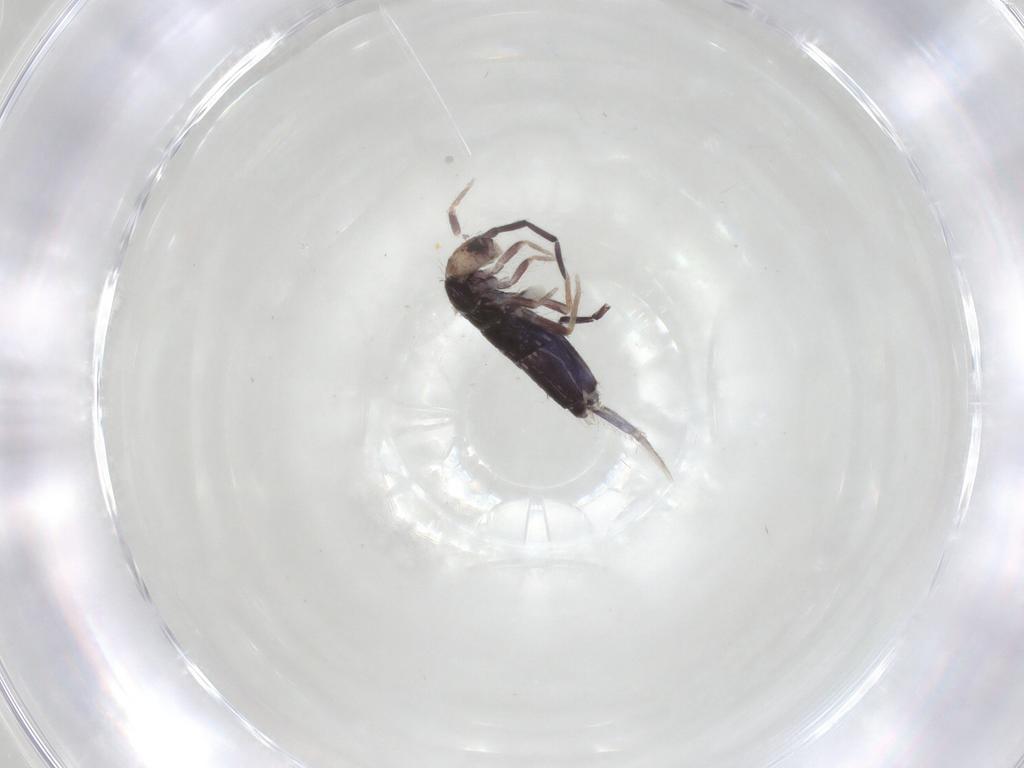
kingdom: Animalia
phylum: Arthropoda
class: Collembola
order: Entomobryomorpha
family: Entomobryidae
